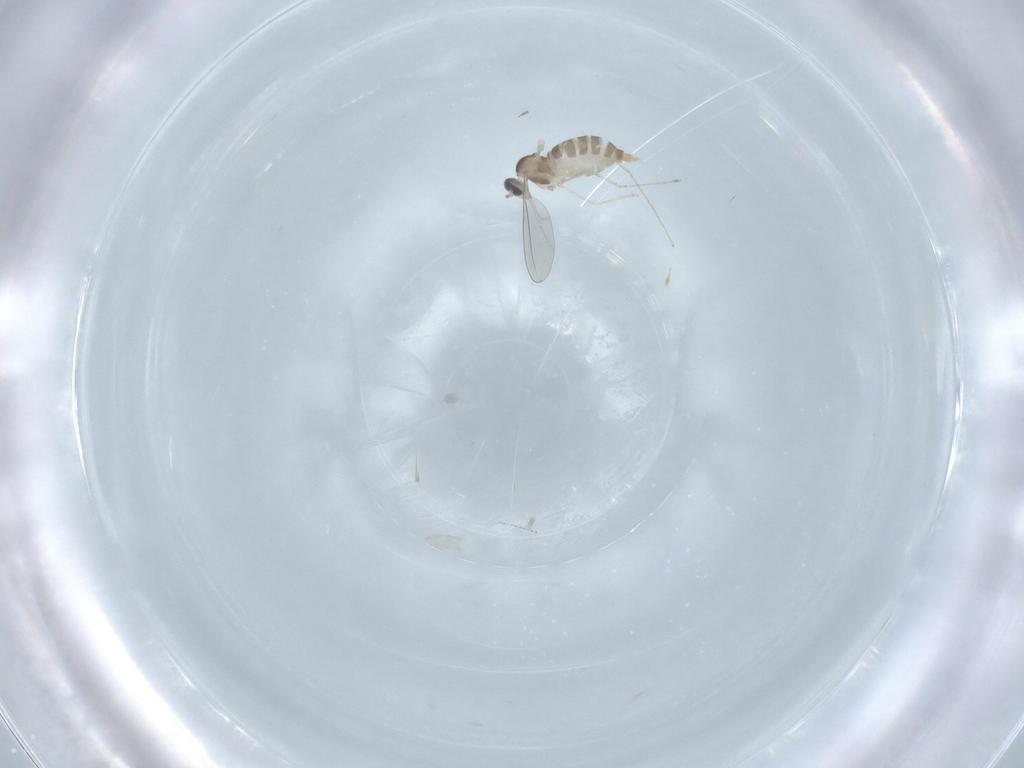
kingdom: Animalia
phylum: Arthropoda
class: Insecta
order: Diptera
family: Cecidomyiidae
